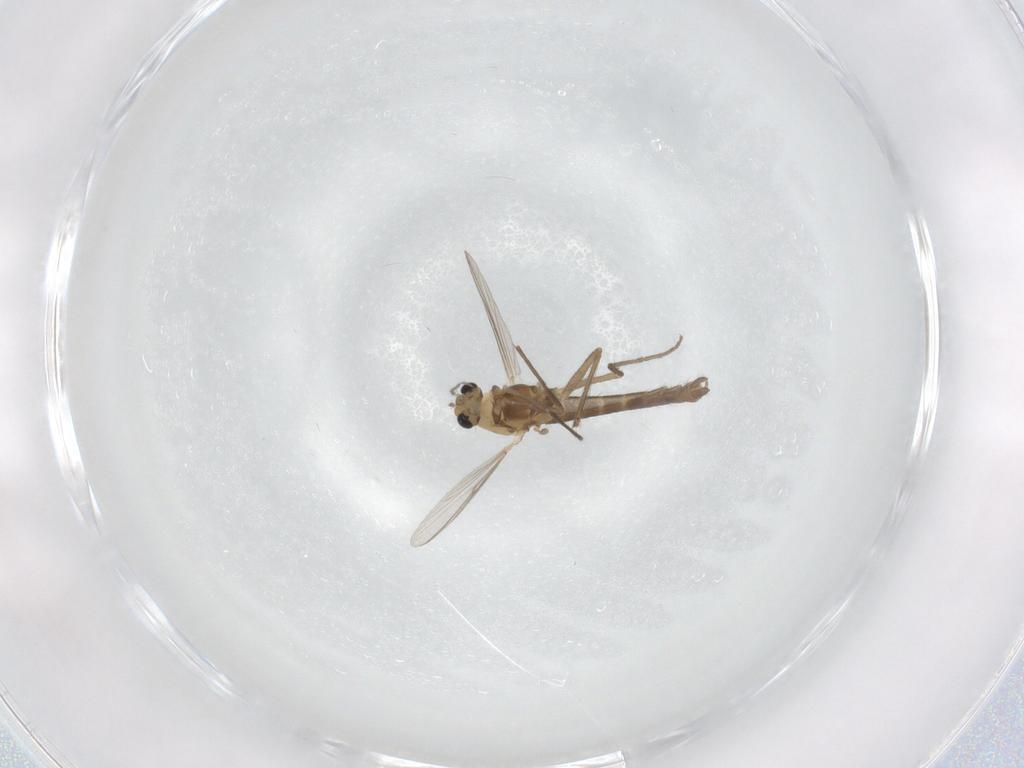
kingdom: Animalia
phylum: Arthropoda
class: Insecta
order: Diptera
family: Chironomidae
